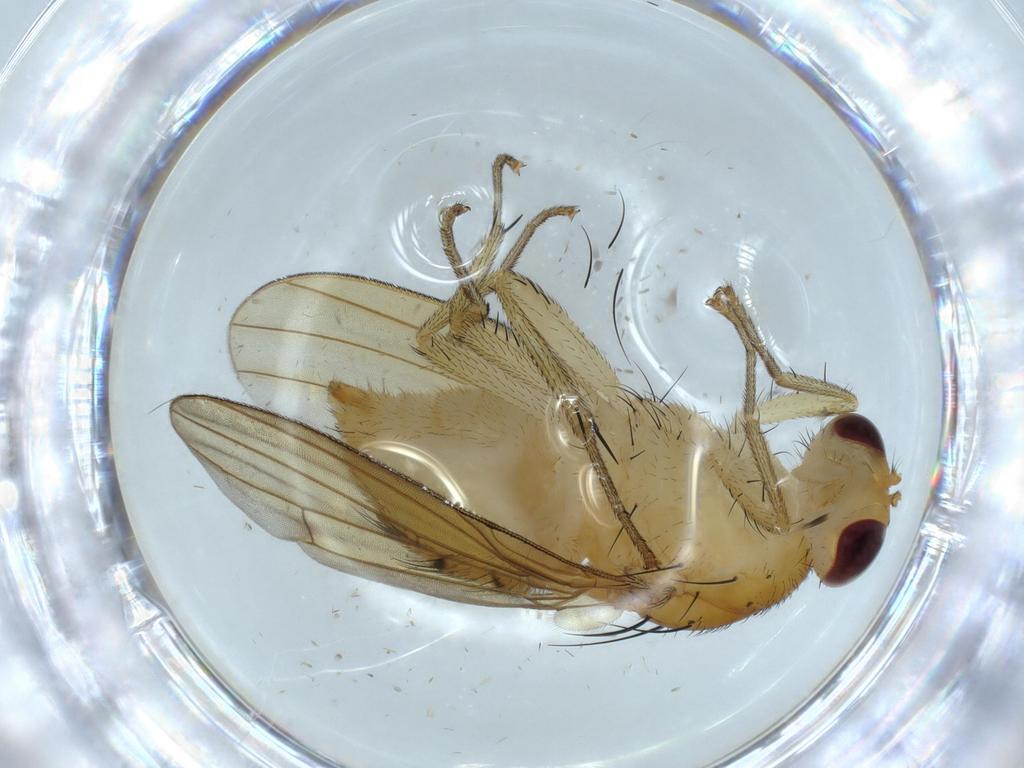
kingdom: Animalia
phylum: Arthropoda
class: Insecta
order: Diptera
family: Lauxaniidae
